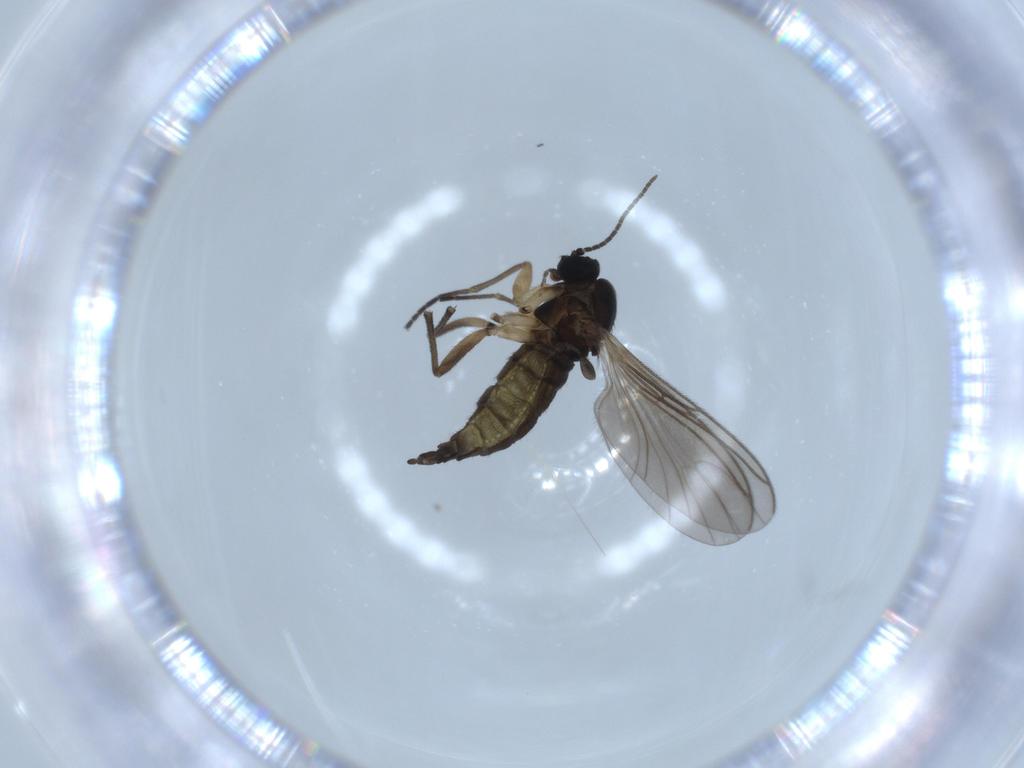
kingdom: Animalia
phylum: Arthropoda
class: Insecta
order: Diptera
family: Sciaridae
